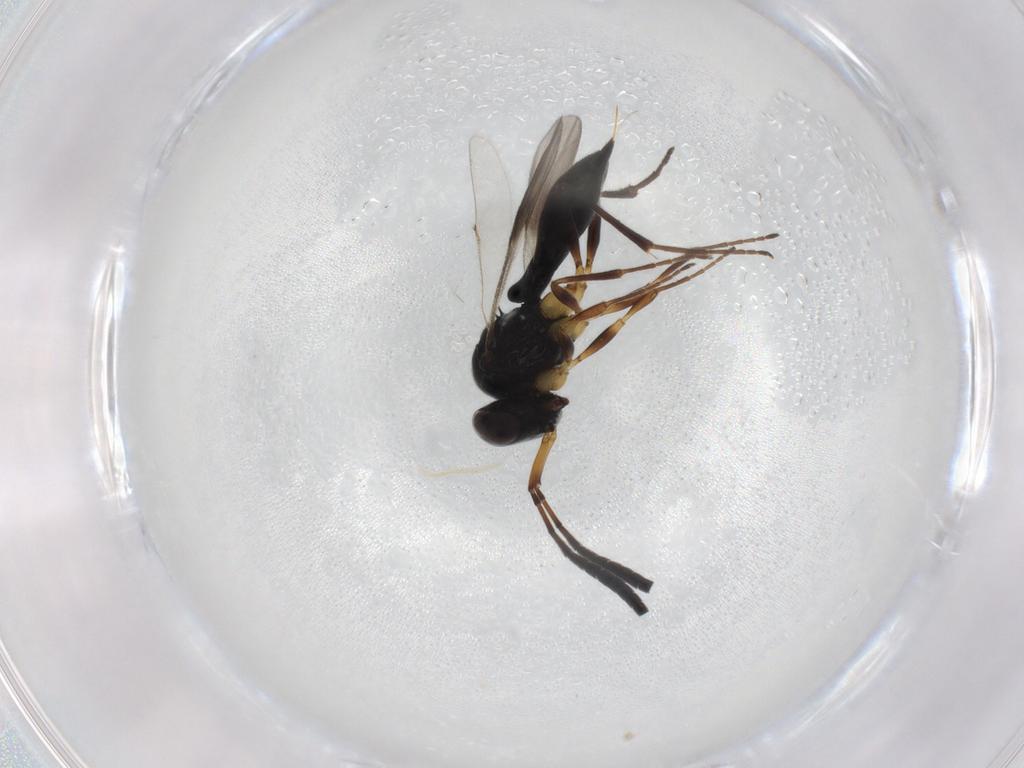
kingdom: Animalia
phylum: Arthropoda
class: Insecta
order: Hymenoptera
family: Scelionidae
